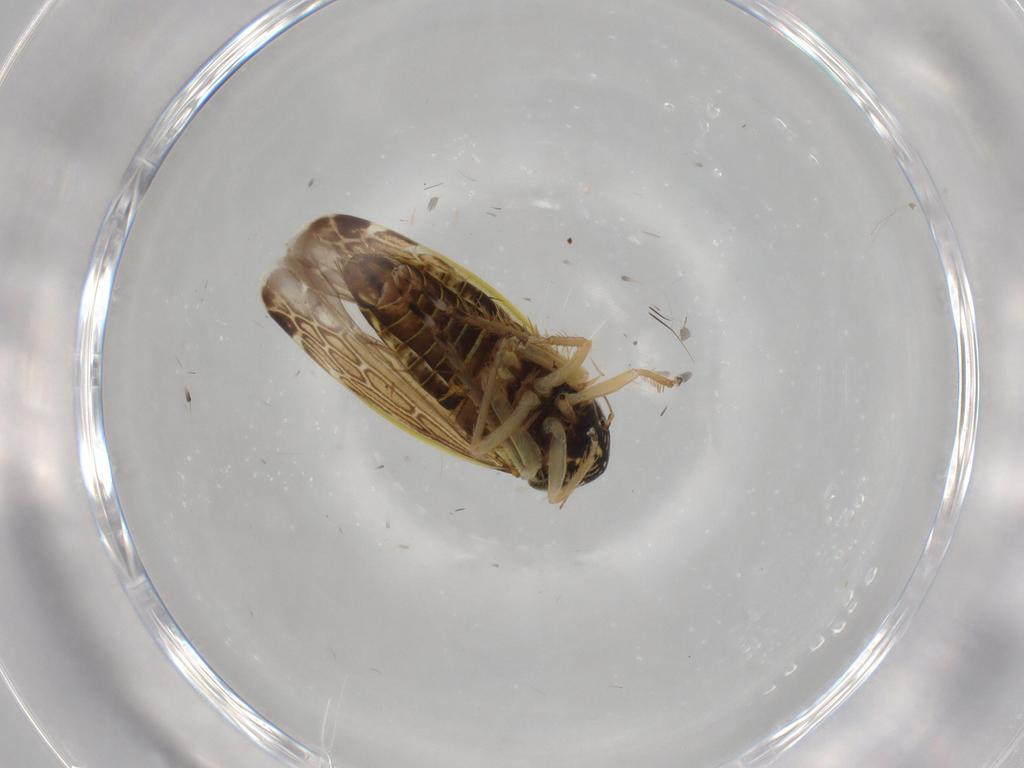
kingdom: Animalia
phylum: Arthropoda
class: Insecta
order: Hemiptera
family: Cicadellidae
